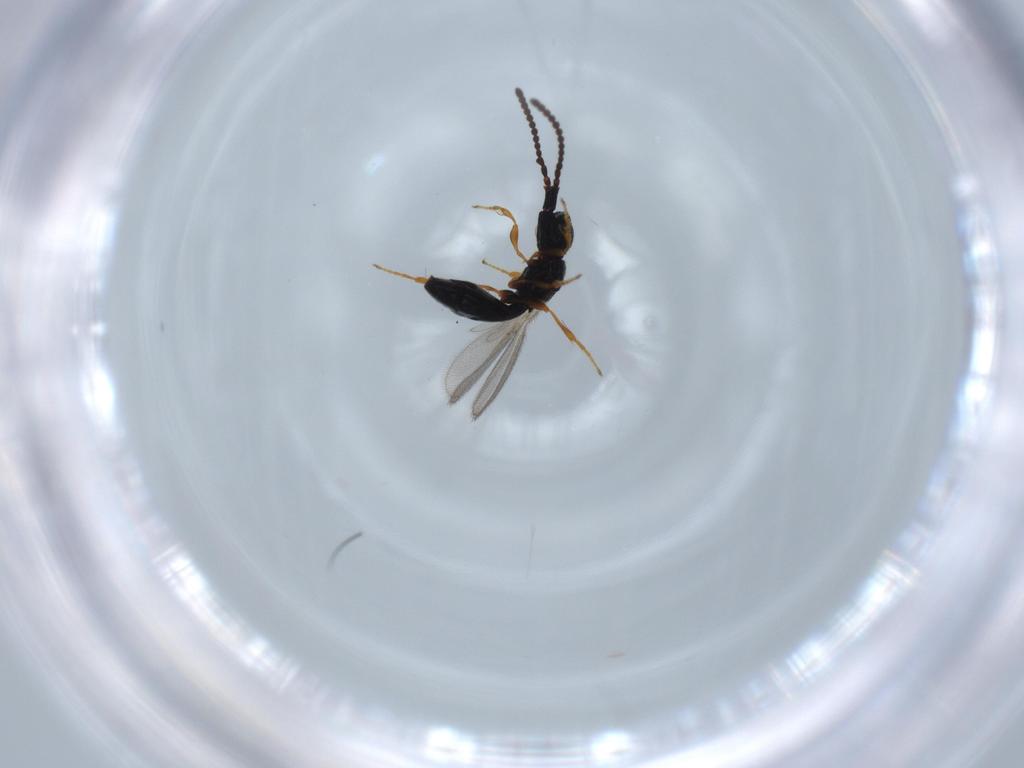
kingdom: Animalia
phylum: Arthropoda
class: Insecta
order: Hymenoptera
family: Diapriidae
